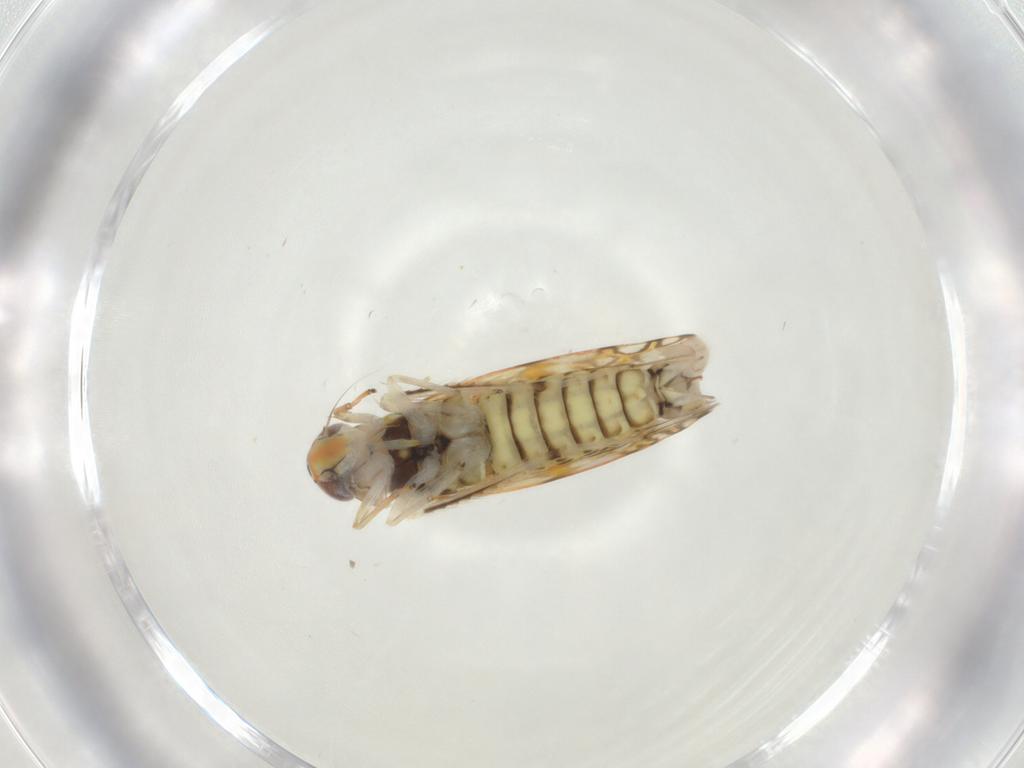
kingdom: Animalia
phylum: Arthropoda
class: Insecta
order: Hemiptera
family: Cicadellidae
